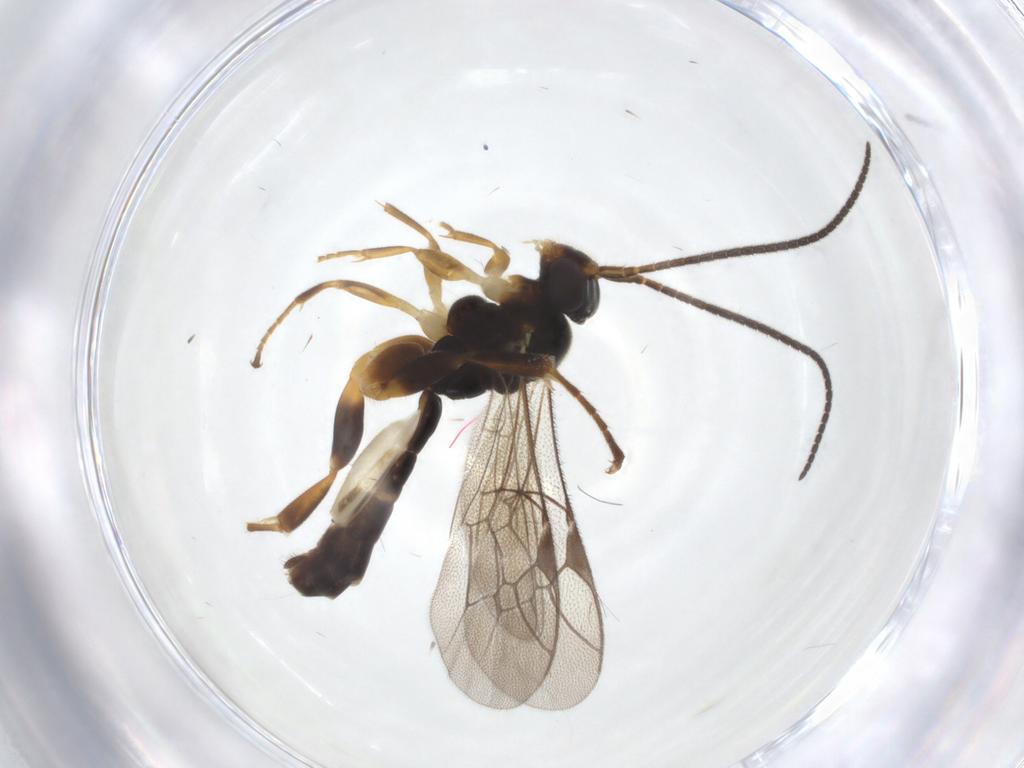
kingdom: Animalia
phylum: Arthropoda
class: Insecta
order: Hymenoptera
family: Ichneumonidae
